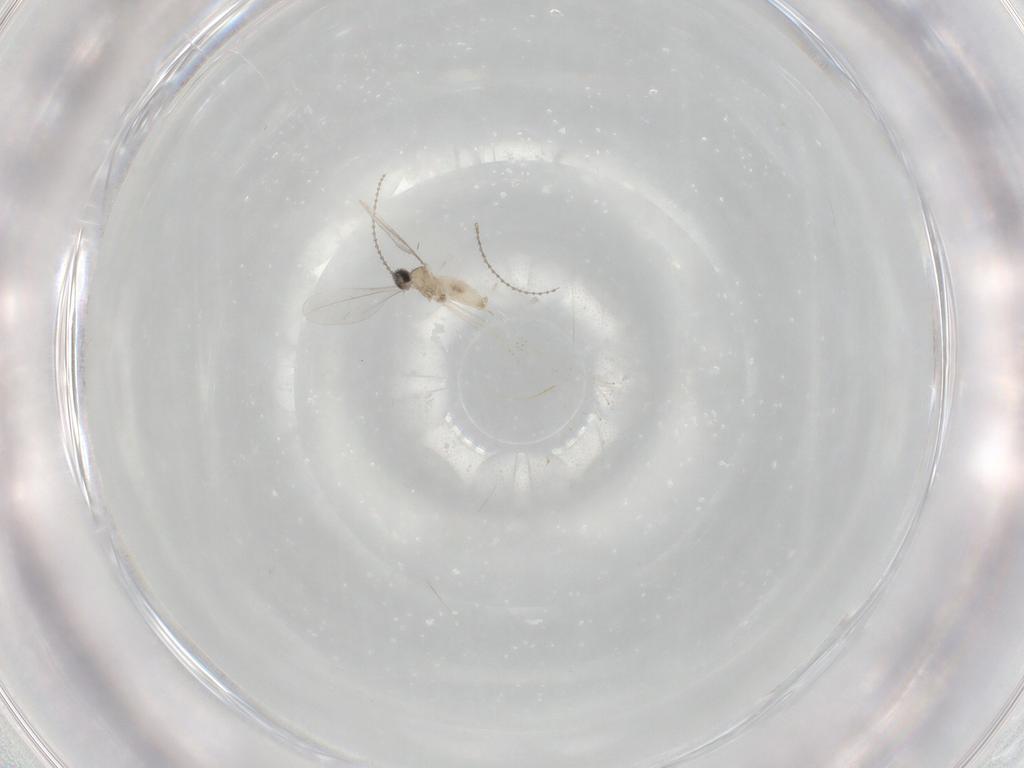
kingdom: Animalia
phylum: Arthropoda
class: Insecta
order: Diptera
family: Cecidomyiidae
